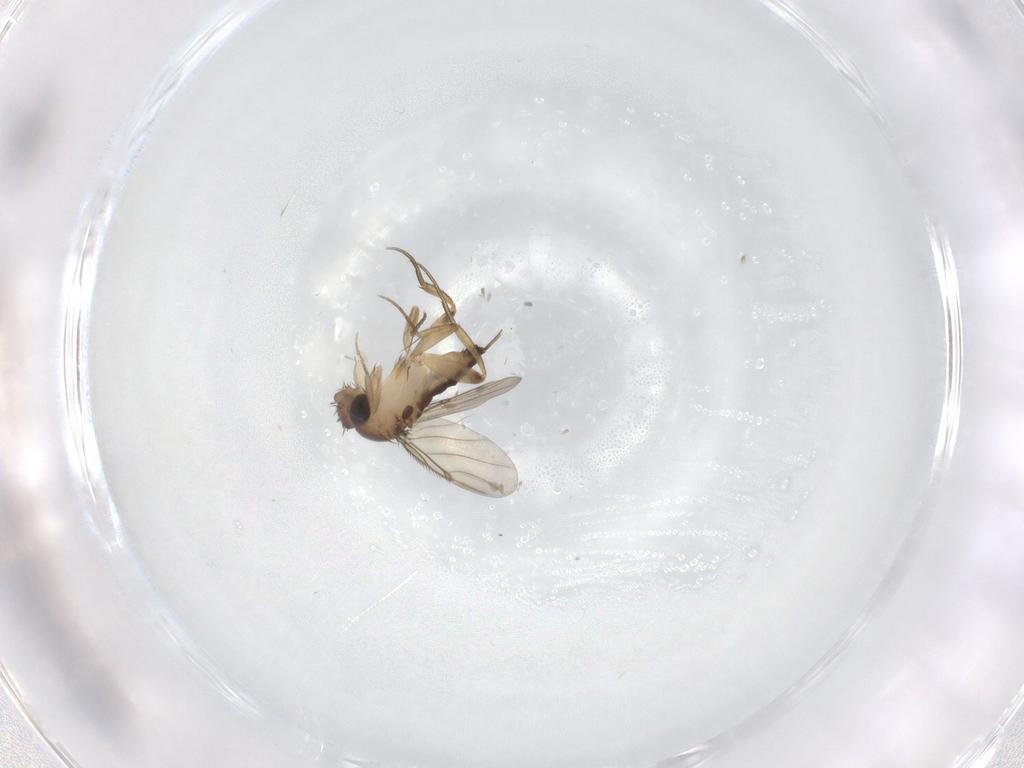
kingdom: Animalia
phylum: Arthropoda
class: Insecta
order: Diptera
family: Phoridae
